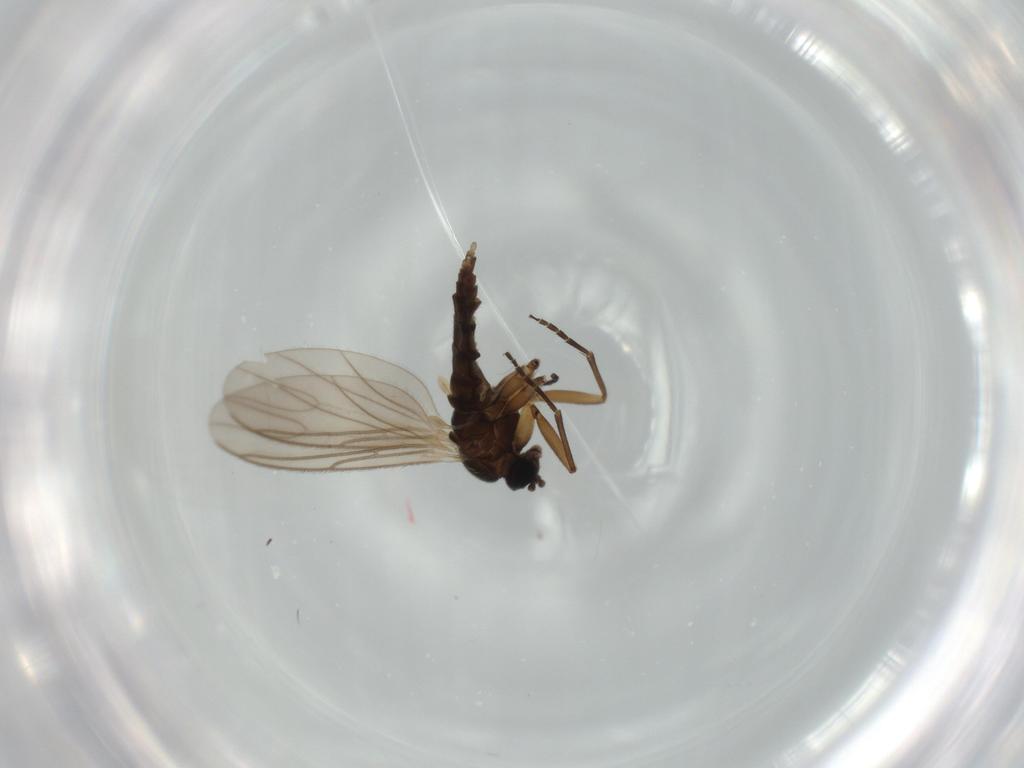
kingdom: Animalia
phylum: Arthropoda
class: Insecta
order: Diptera
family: Sciaridae
